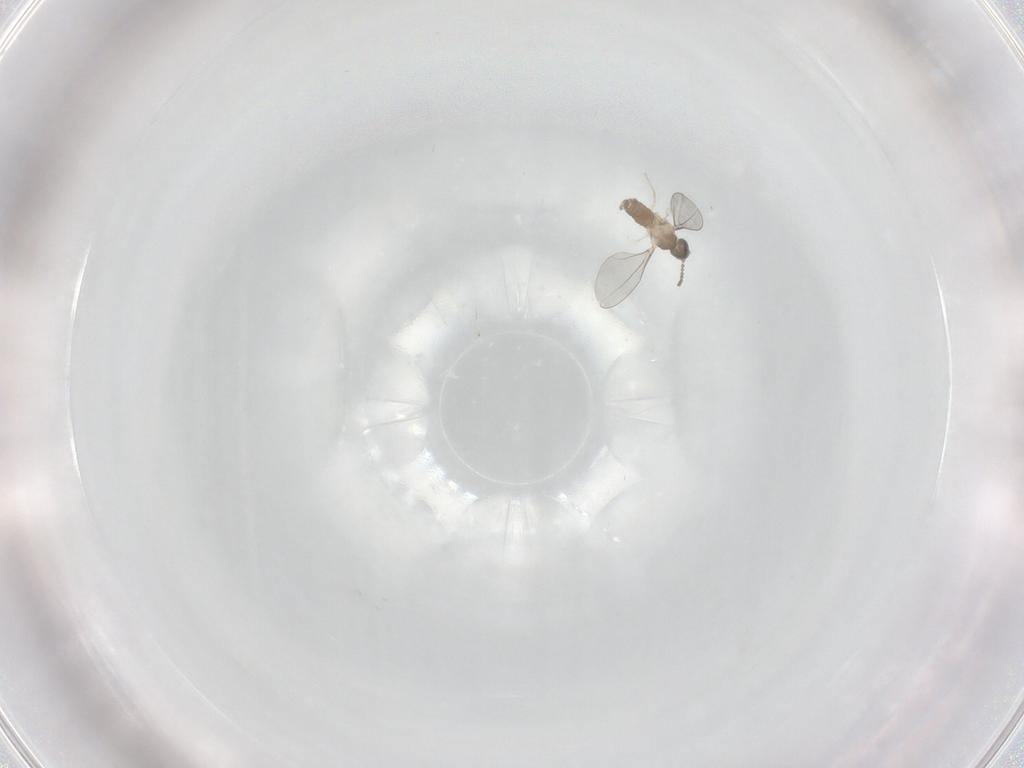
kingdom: Animalia
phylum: Arthropoda
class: Insecta
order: Diptera
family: Cecidomyiidae
